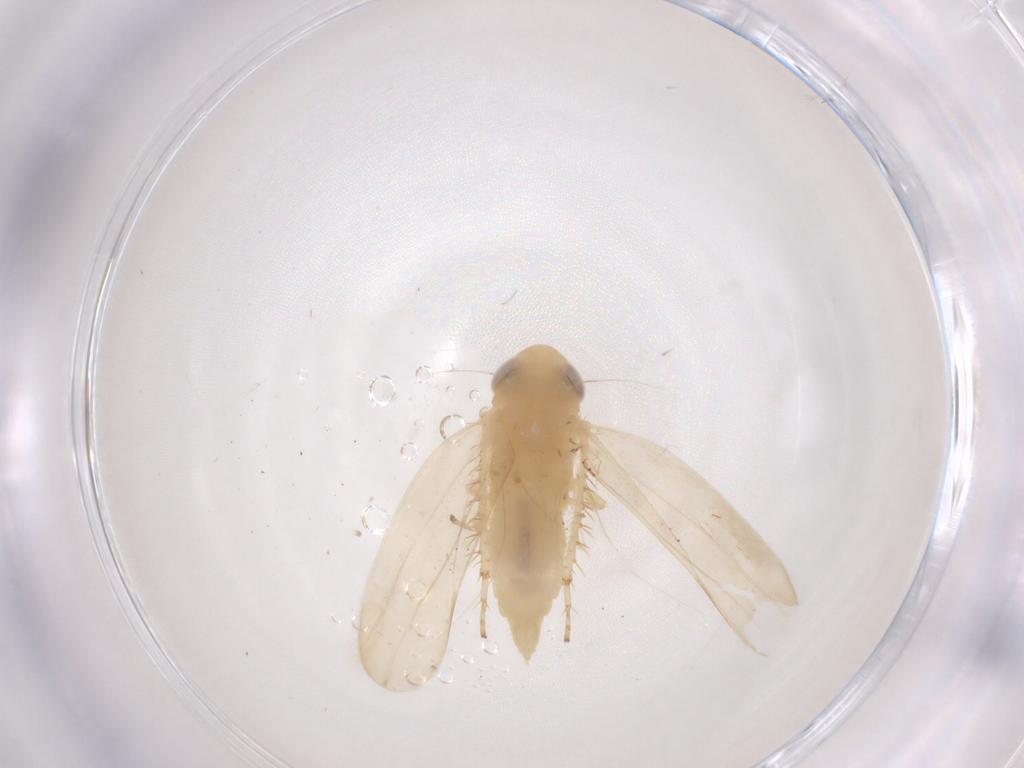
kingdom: Animalia
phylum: Arthropoda
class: Insecta
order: Hemiptera
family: Cicadellidae
